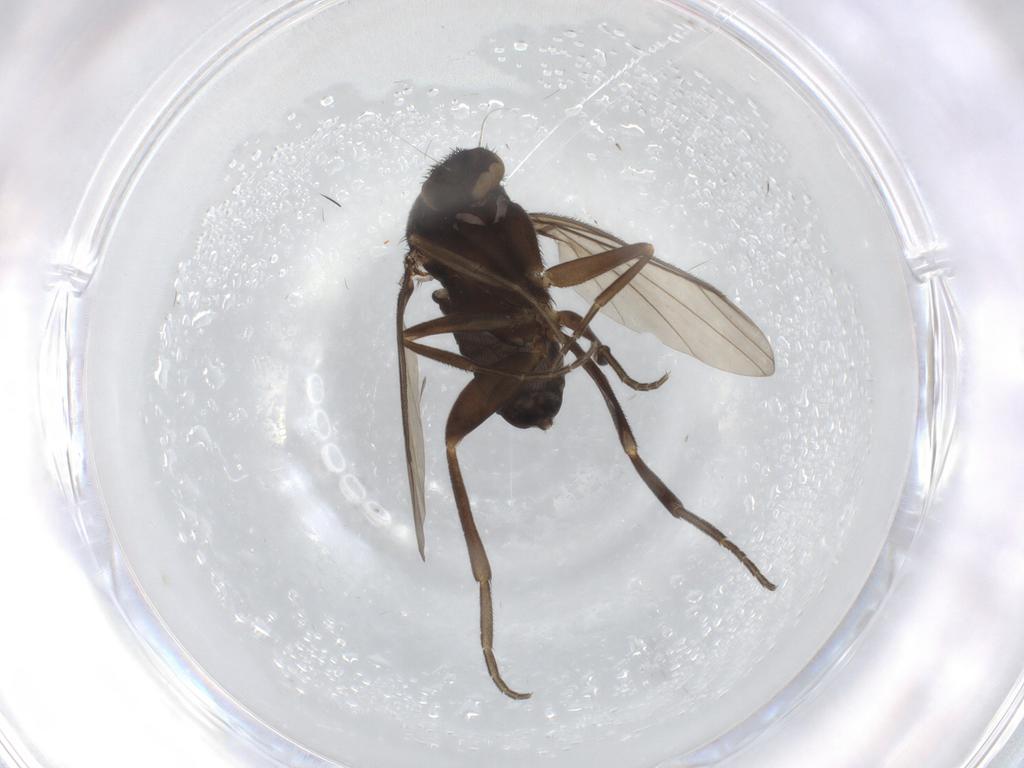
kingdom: Animalia
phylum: Arthropoda
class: Insecta
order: Diptera
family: Phoridae
